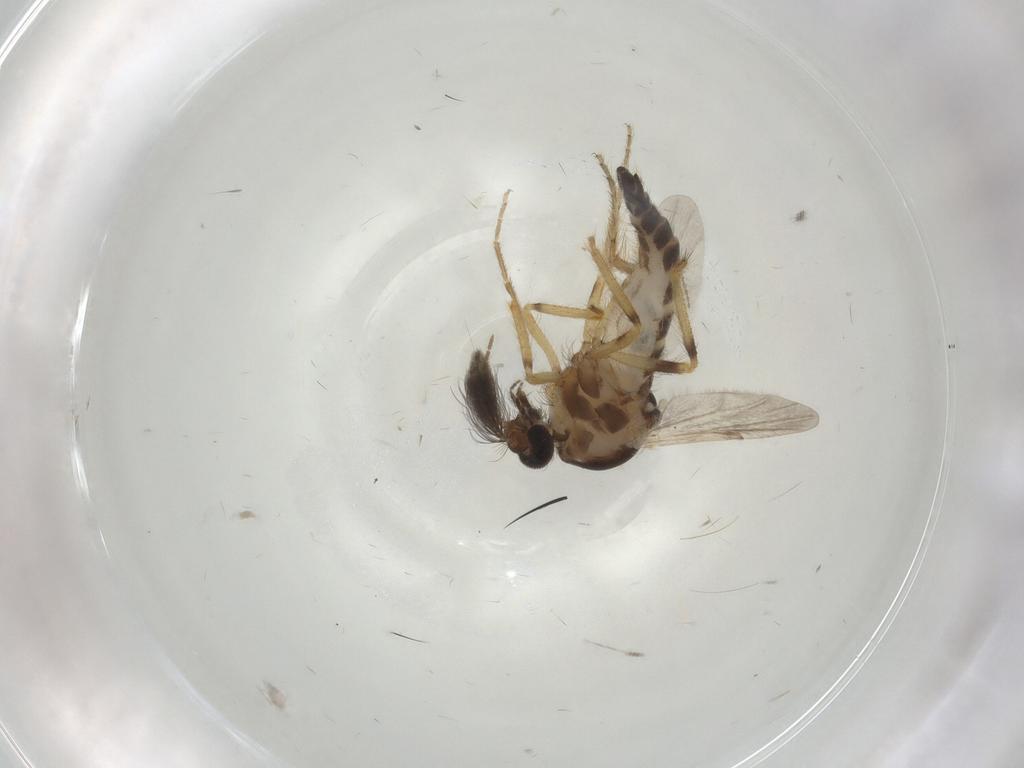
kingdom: Animalia
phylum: Arthropoda
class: Insecta
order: Diptera
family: Ceratopogonidae
